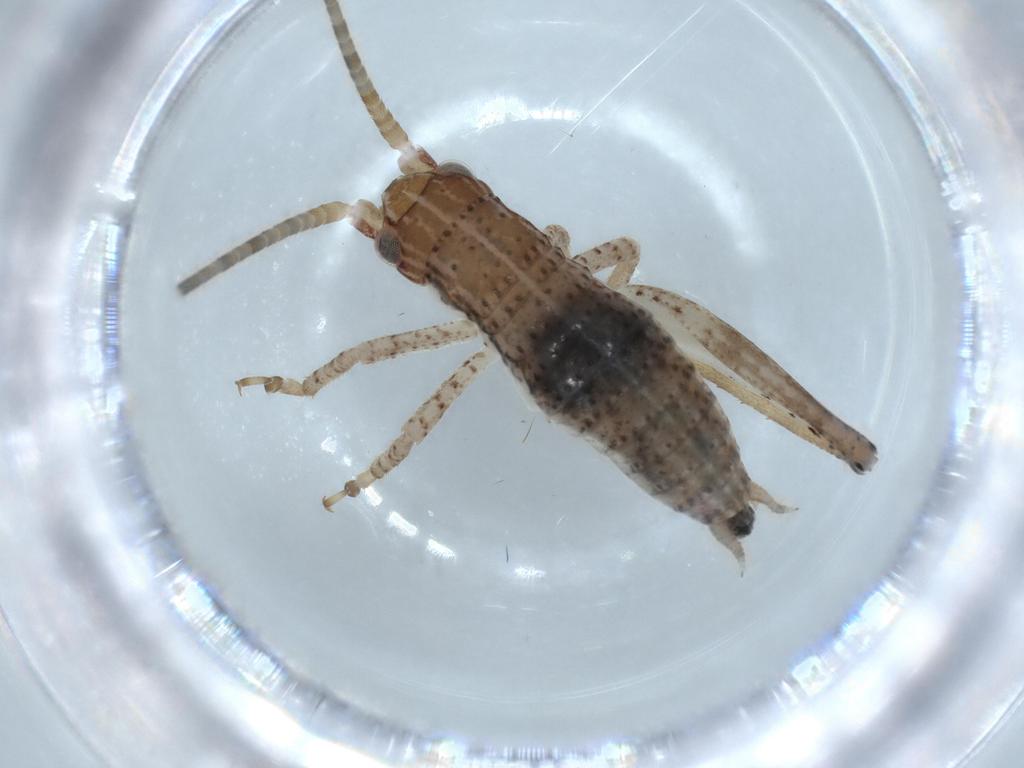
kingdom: Animalia
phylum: Arthropoda
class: Insecta
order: Orthoptera
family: Gryllidae
